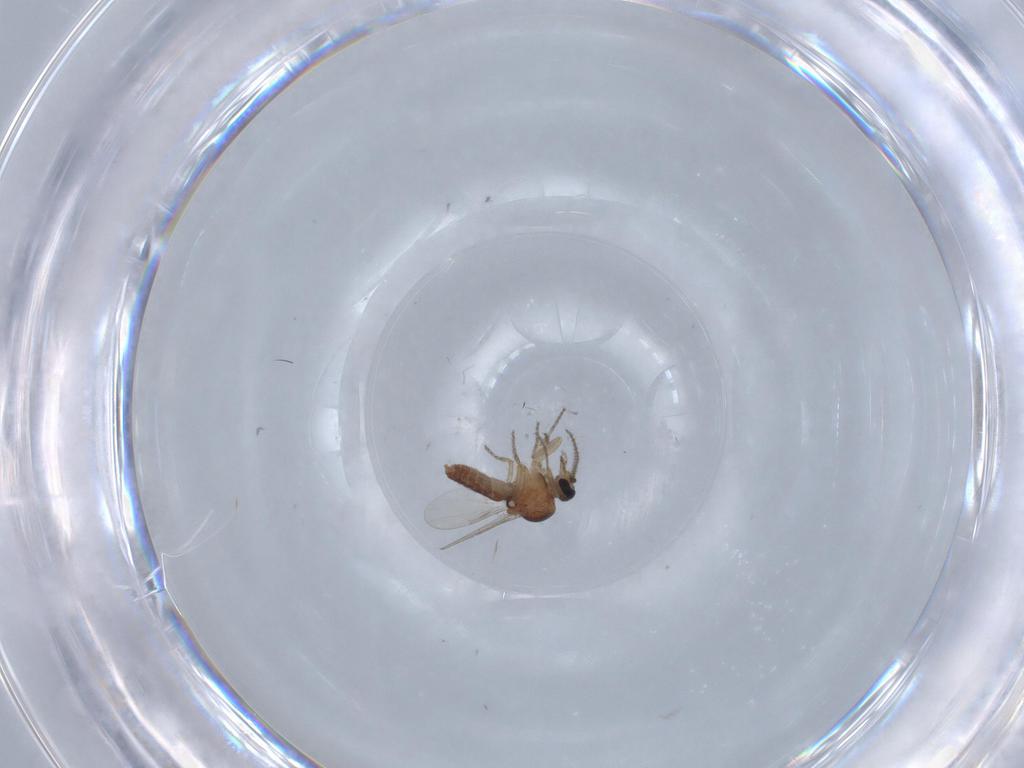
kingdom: Animalia
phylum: Arthropoda
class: Insecta
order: Diptera
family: Ceratopogonidae
